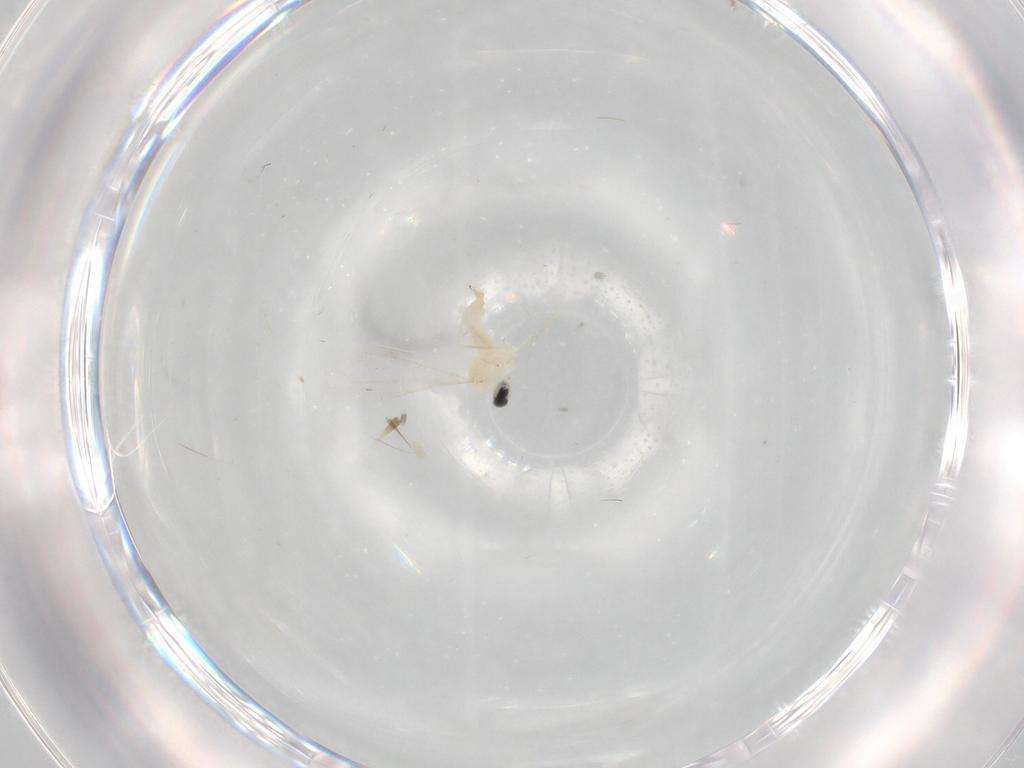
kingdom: Animalia
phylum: Arthropoda
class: Insecta
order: Diptera
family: Cecidomyiidae
